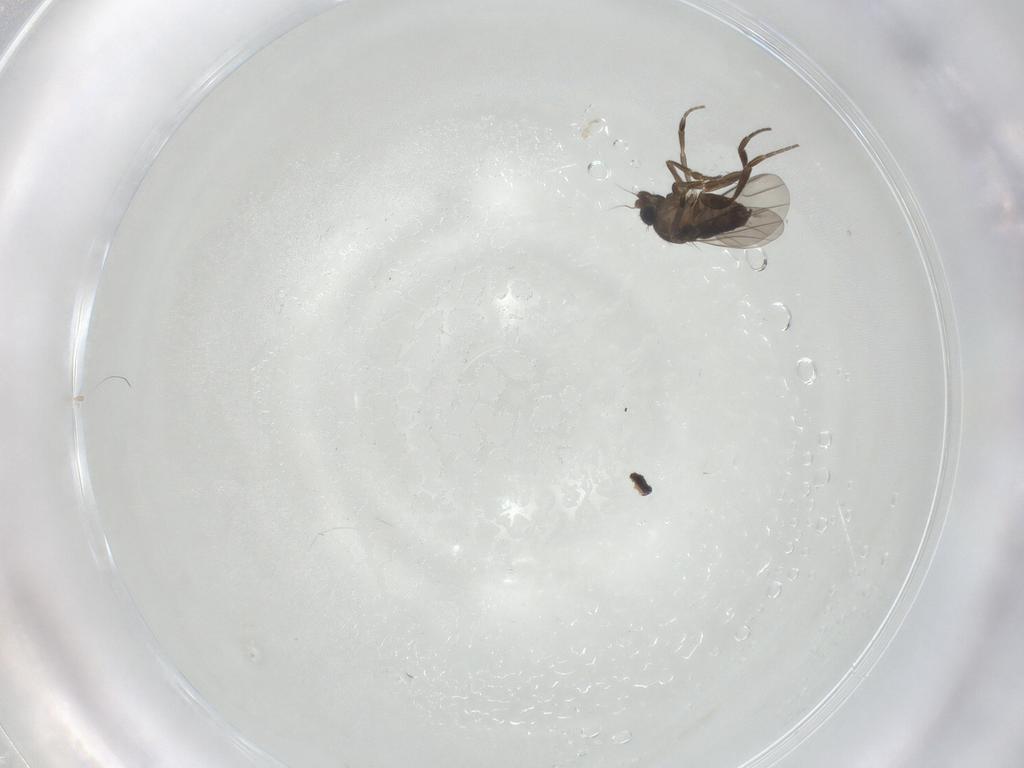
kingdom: Animalia
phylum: Arthropoda
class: Insecta
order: Diptera
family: Phoridae
